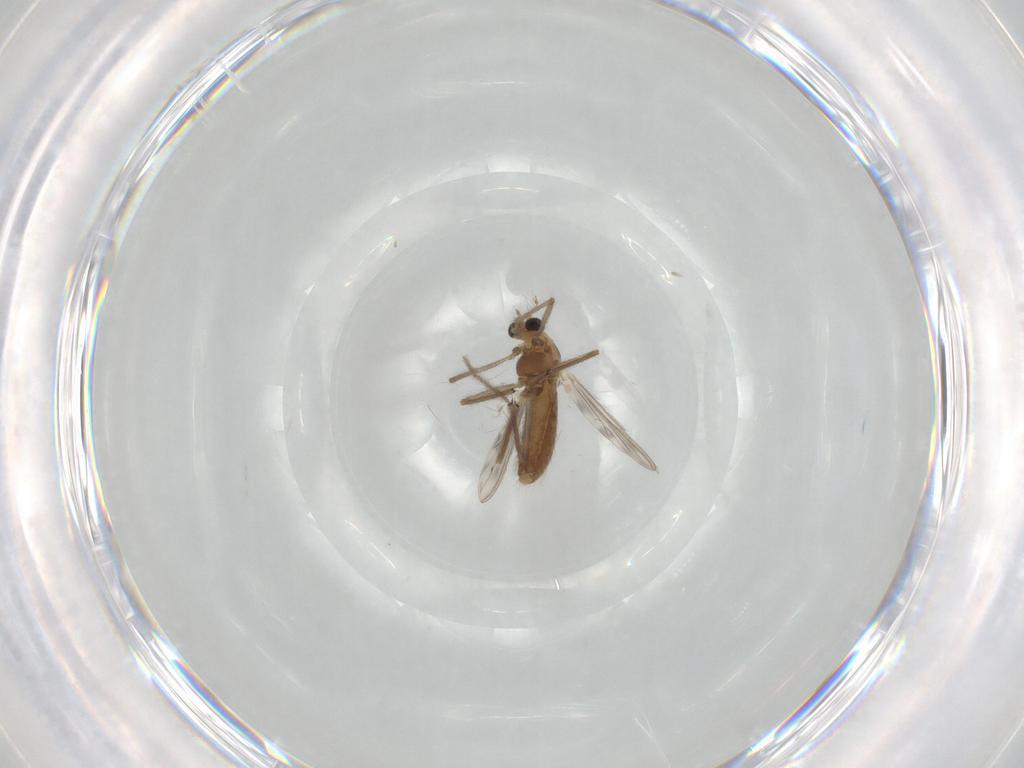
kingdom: Animalia
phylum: Arthropoda
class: Insecta
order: Diptera
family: Chironomidae
